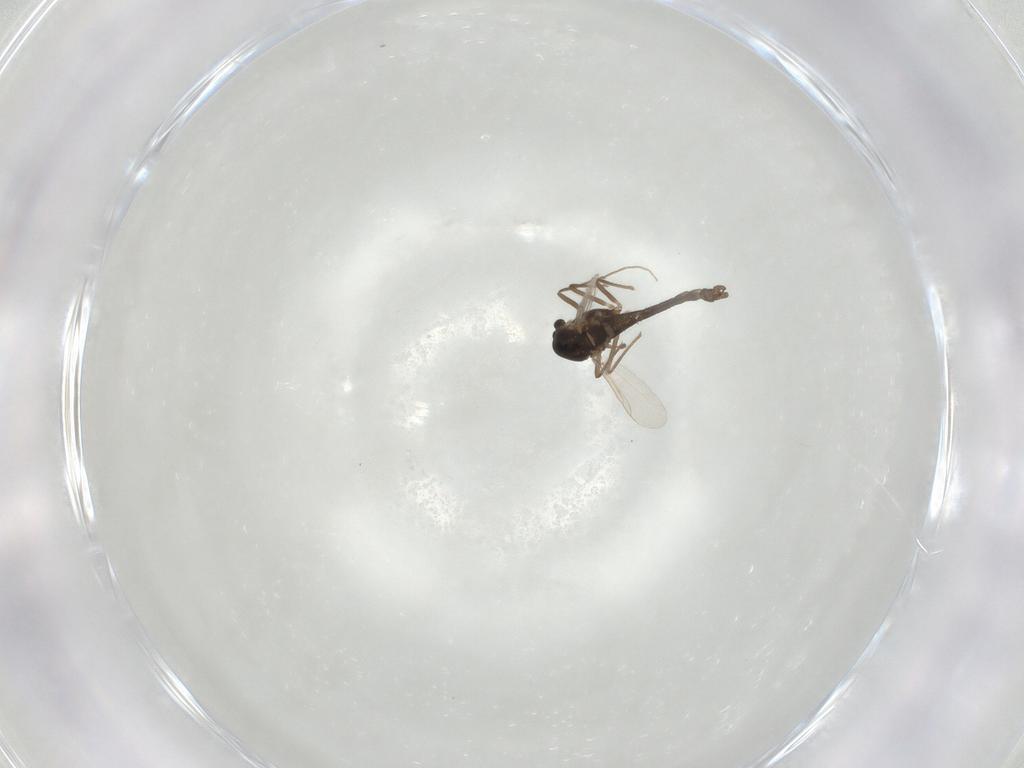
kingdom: Animalia
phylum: Arthropoda
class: Insecta
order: Diptera
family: Chironomidae
